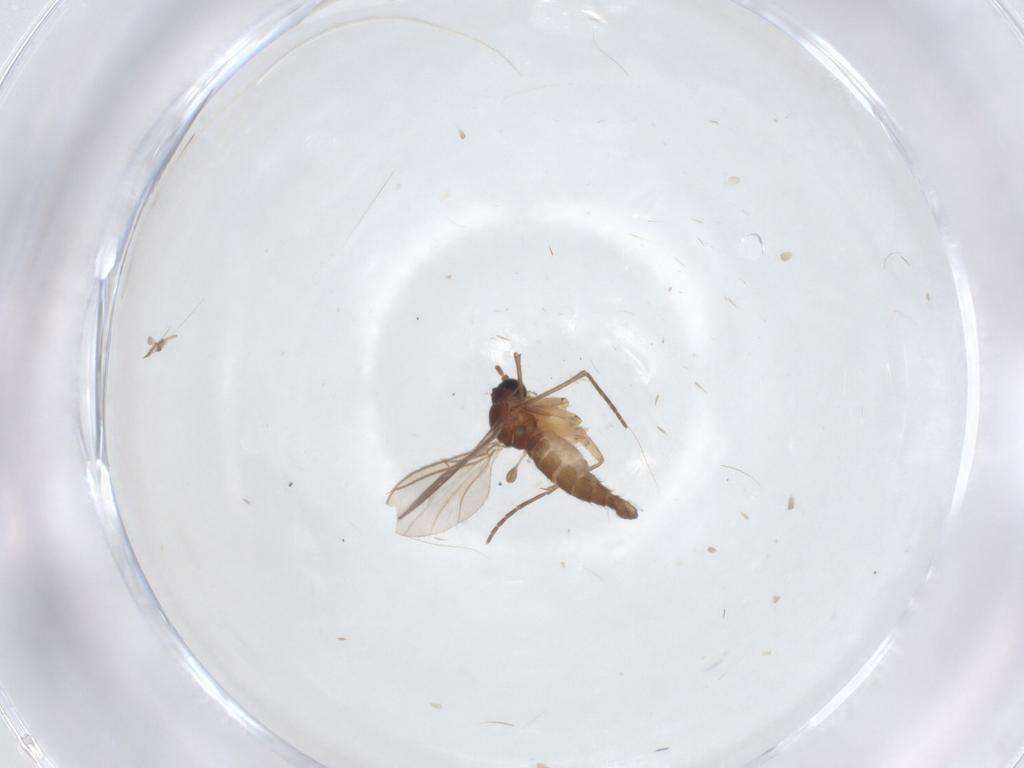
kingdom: Animalia
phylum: Arthropoda
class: Insecta
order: Diptera
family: Sciaridae
